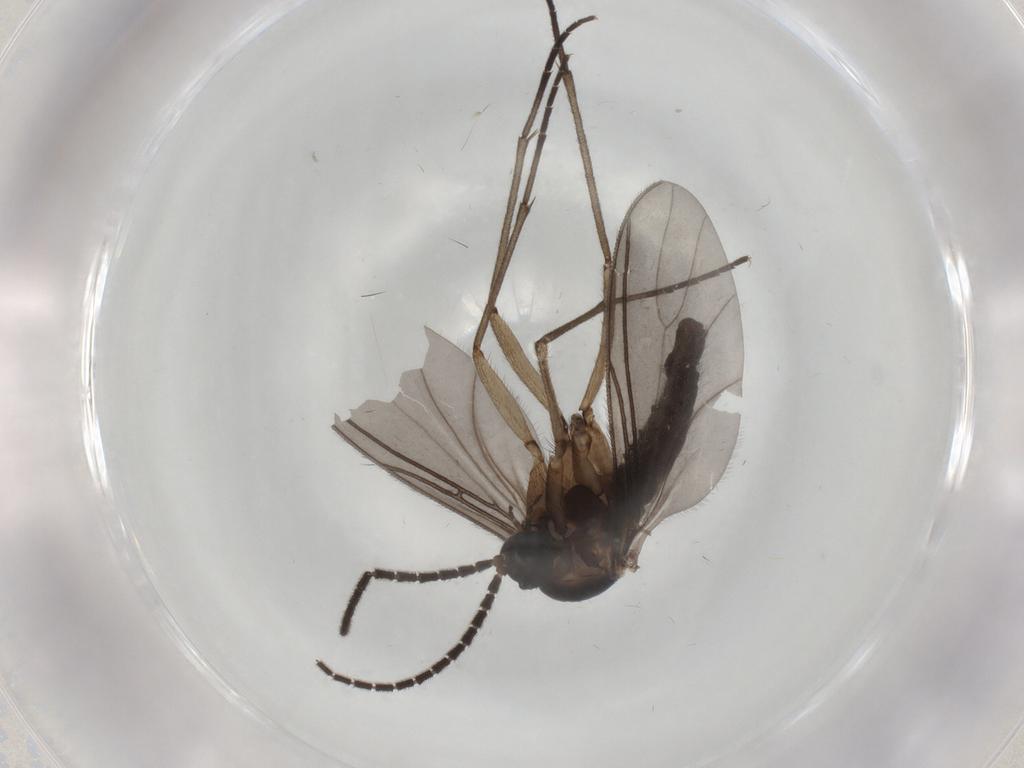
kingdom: Animalia
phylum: Arthropoda
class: Insecta
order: Diptera
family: Sciaridae
